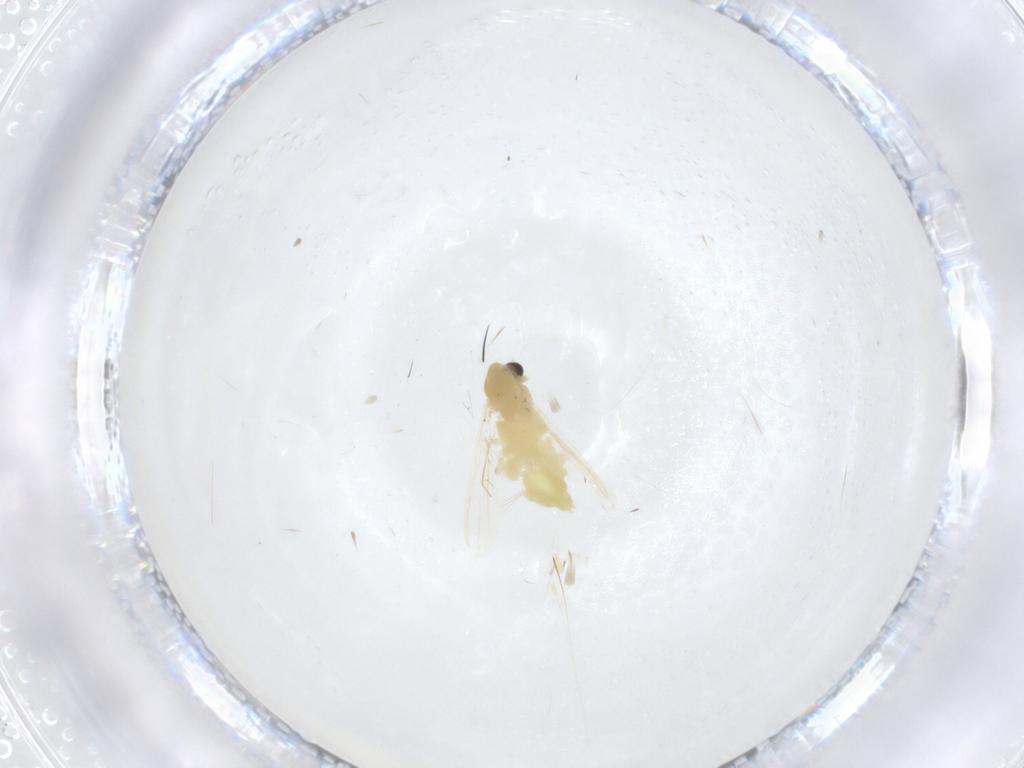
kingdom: Animalia
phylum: Arthropoda
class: Insecta
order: Diptera
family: Chironomidae
